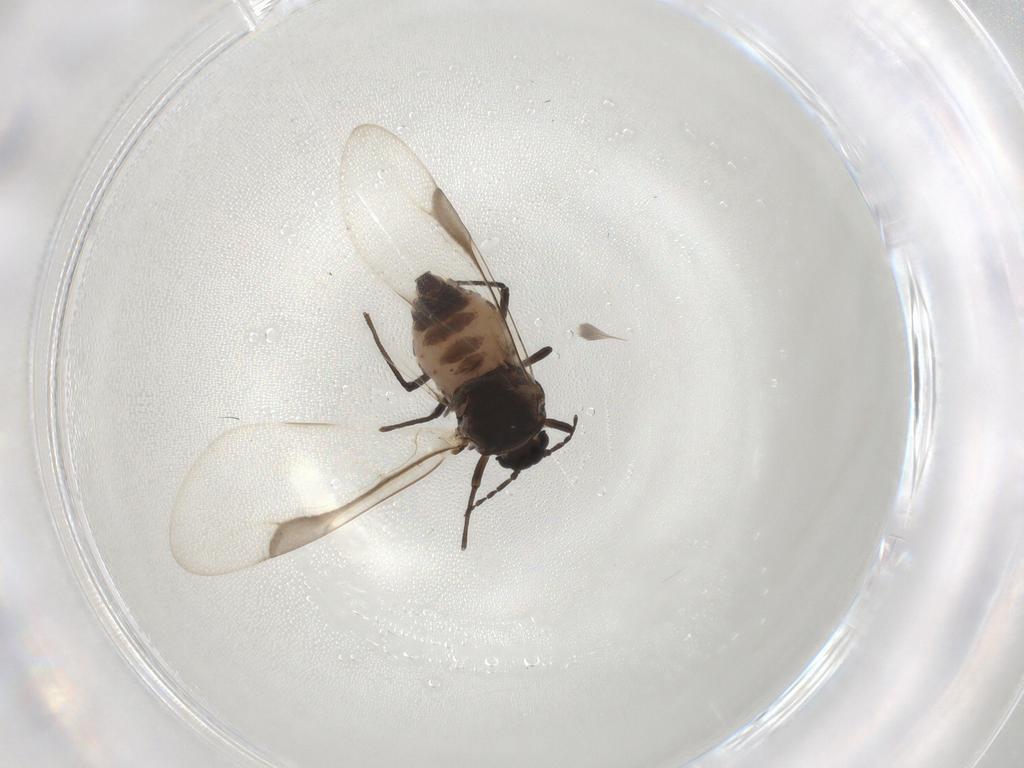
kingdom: Animalia
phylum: Arthropoda
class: Insecta
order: Hemiptera
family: Aphididae
